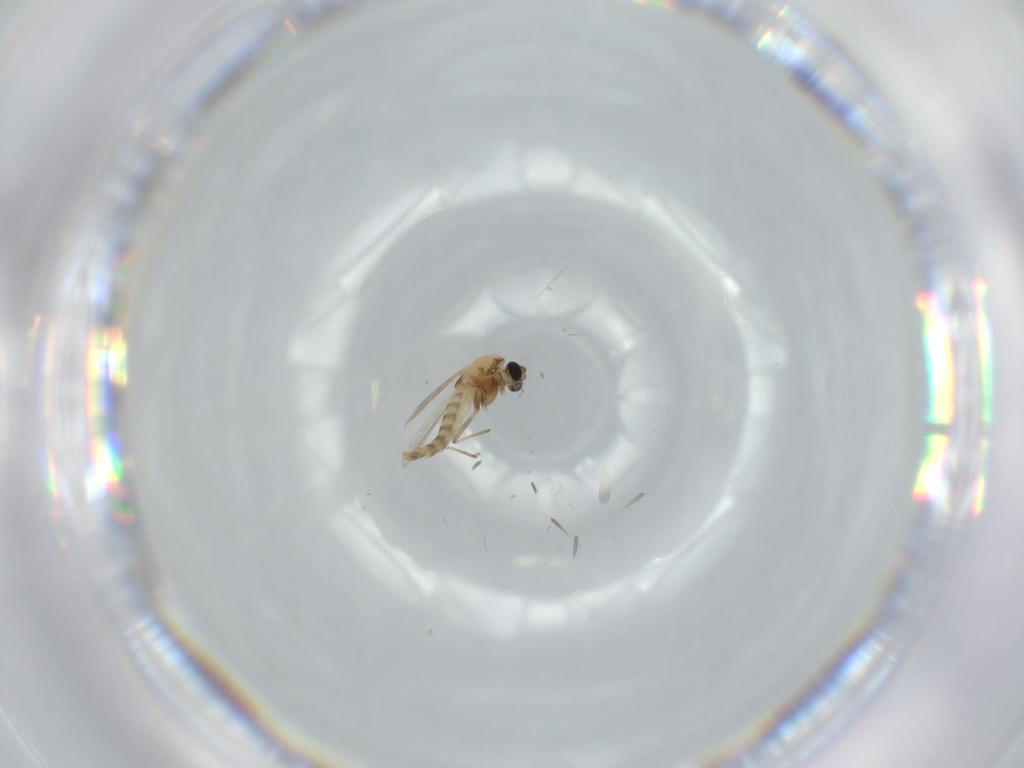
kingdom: Animalia
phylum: Arthropoda
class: Insecta
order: Diptera
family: Chironomidae
